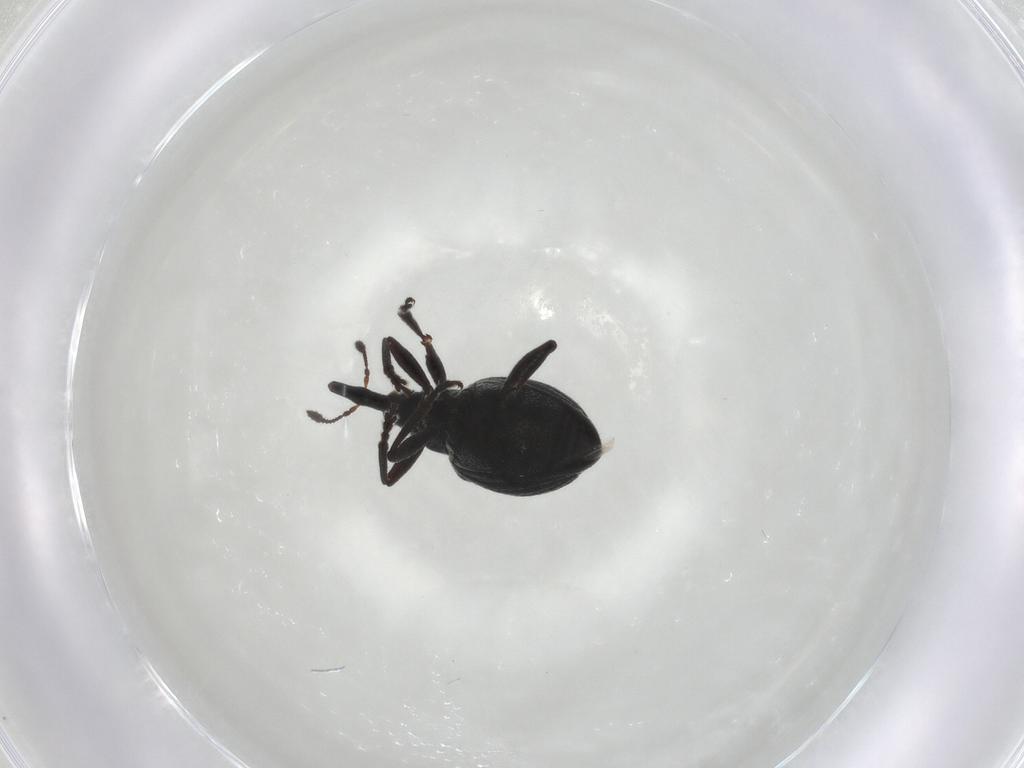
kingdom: Animalia
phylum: Arthropoda
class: Insecta
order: Coleoptera
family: Brentidae
